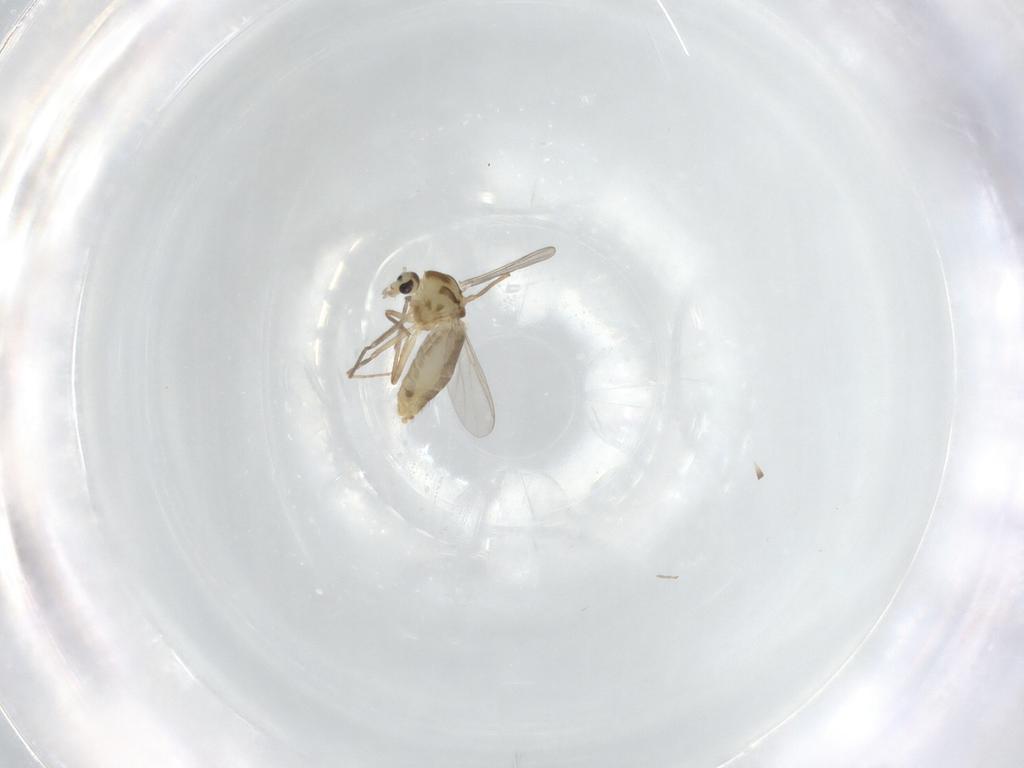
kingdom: Animalia
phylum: Arthropoda
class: Insecta
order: Diptera
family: Chironomidae
